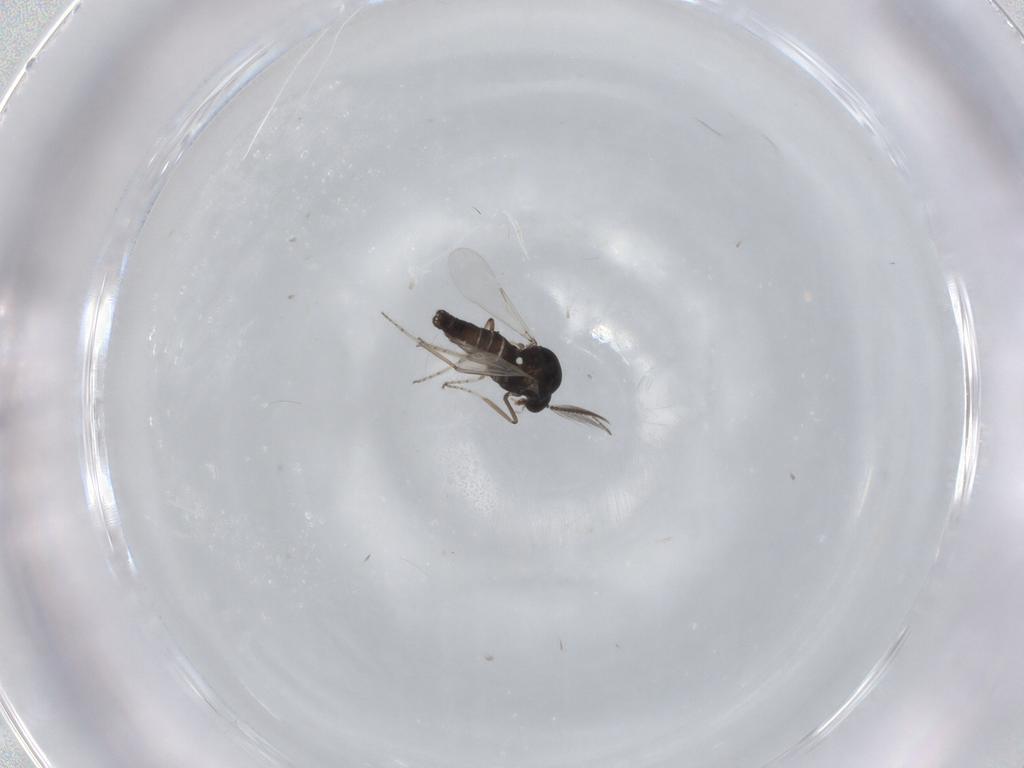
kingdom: Animalia
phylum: Arthropoda
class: Insecta
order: Diptera
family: Ceratopogonidae
